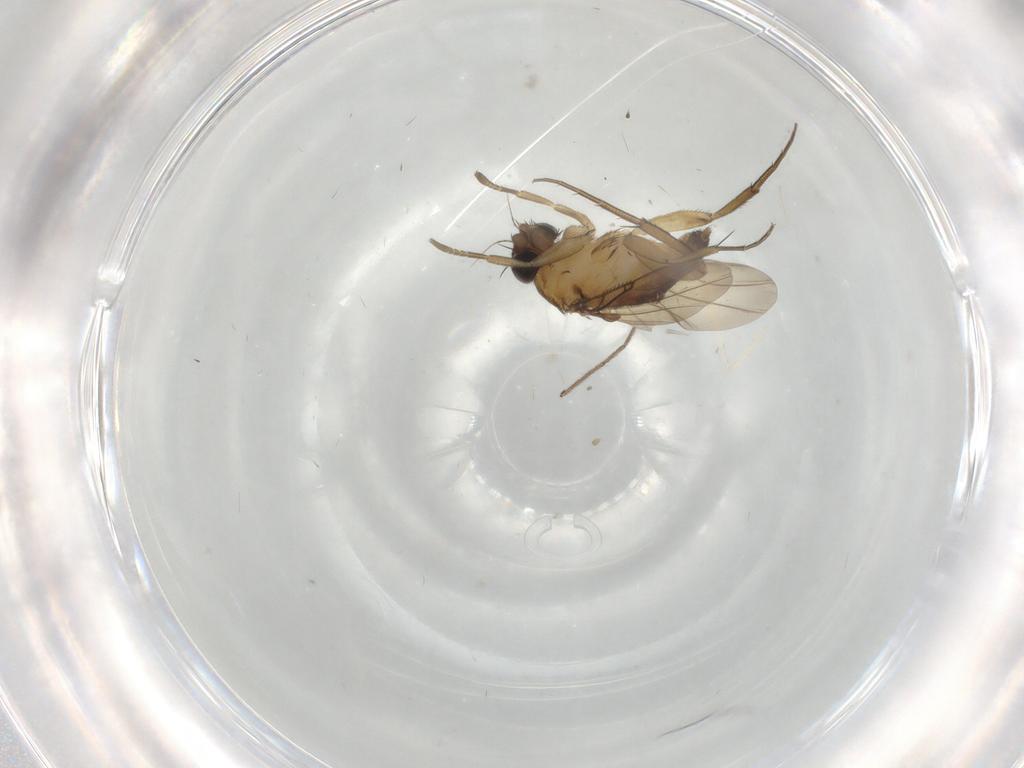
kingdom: Animalia
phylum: Arthropoda
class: Insecta
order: Diptera
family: Phoridae
